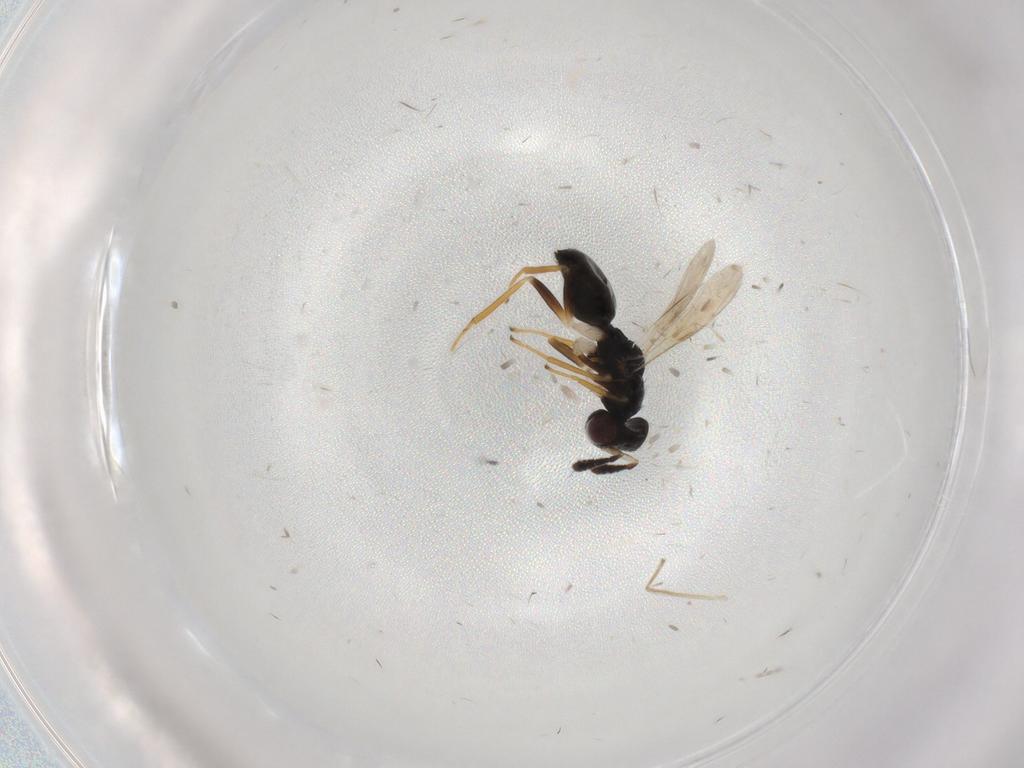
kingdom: Animalia
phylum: Arthropoda
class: Insecta
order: Hymenoptera
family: Eulophidae
